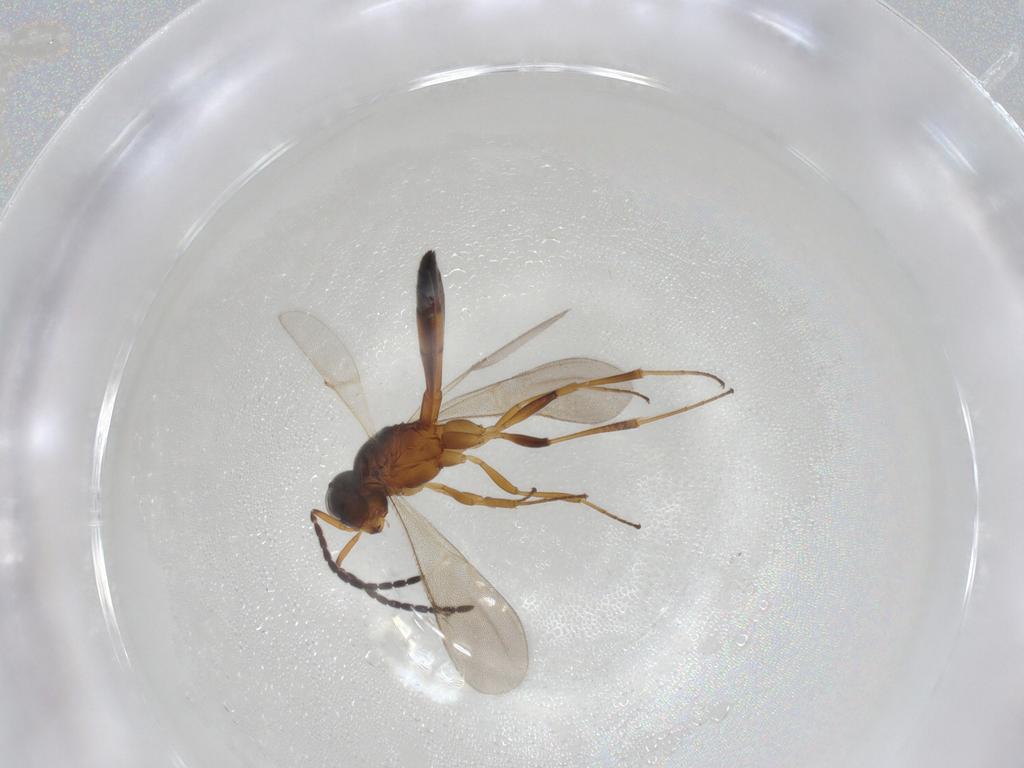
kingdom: Animalia
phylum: Arthropoda
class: Insecta
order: Hymenoptera
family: Scelionidae
